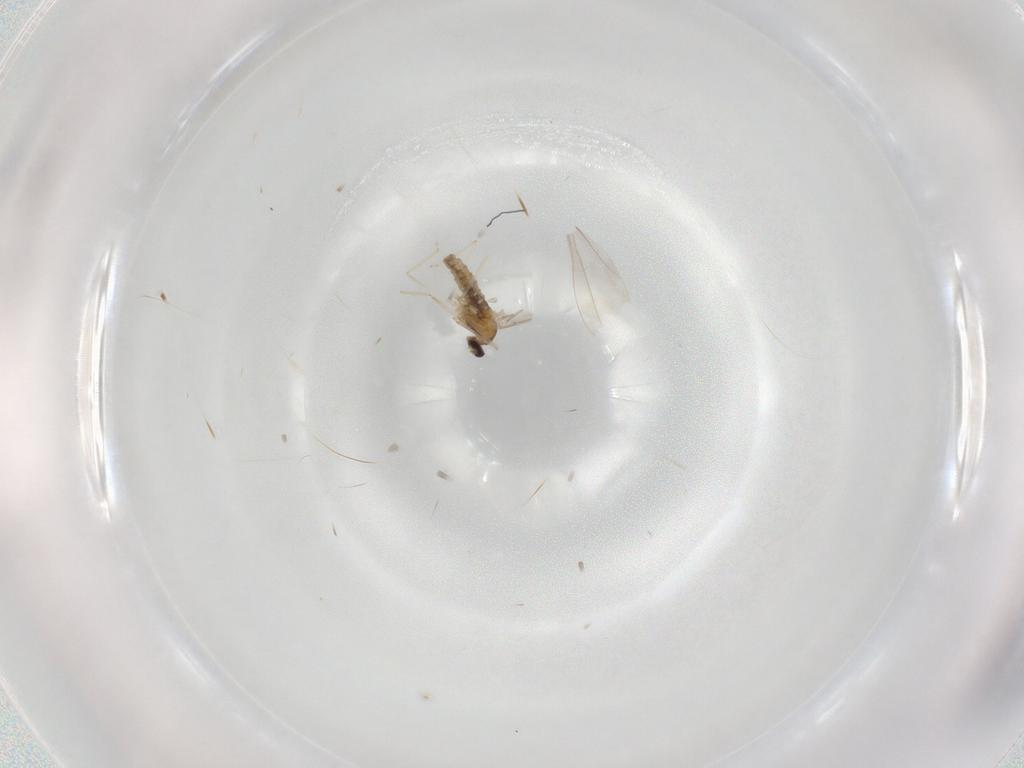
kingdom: Animalia
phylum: Arthropoda
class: Insecta
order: Diptera
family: Cecidomyiidae
